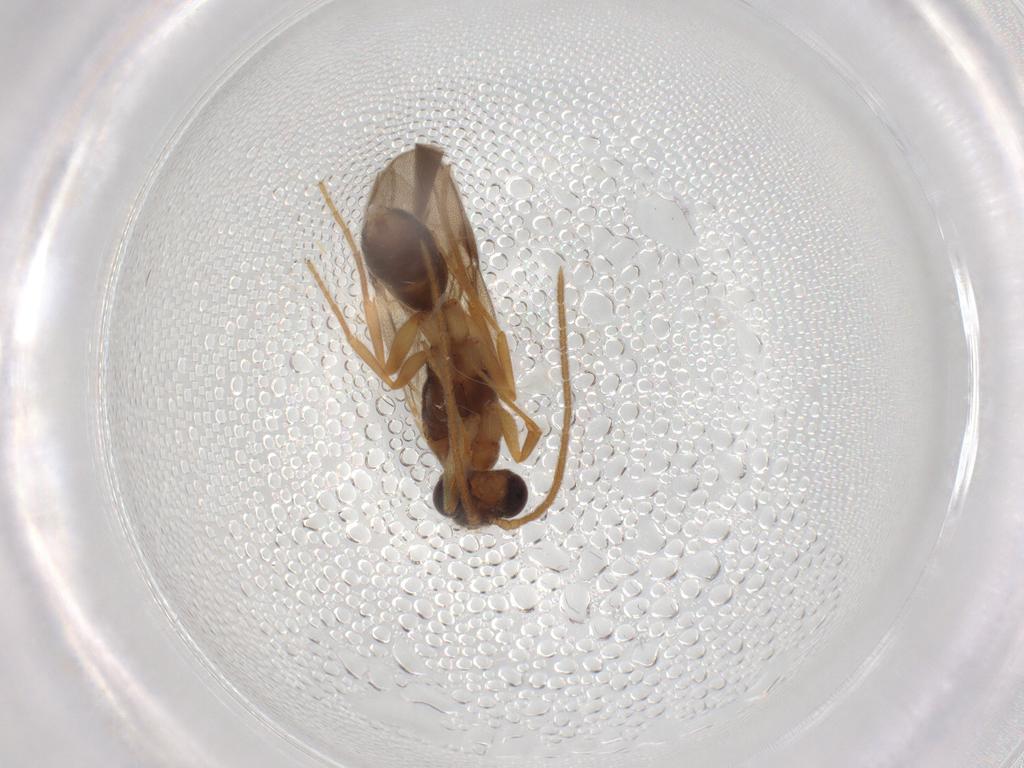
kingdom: Animalia
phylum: Arthropoda
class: Insecta
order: Hymenoptera
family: Formicidae
